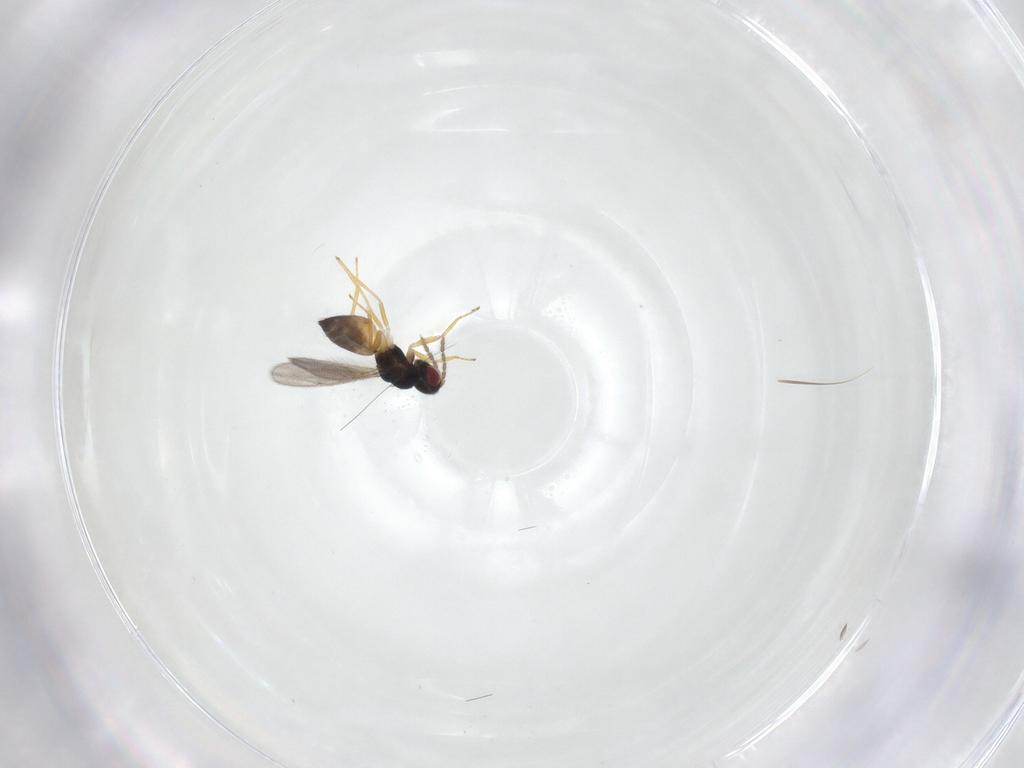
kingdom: Animalia
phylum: Arthropoda
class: Insecta
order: Hymenoptera
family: Eulophidae
